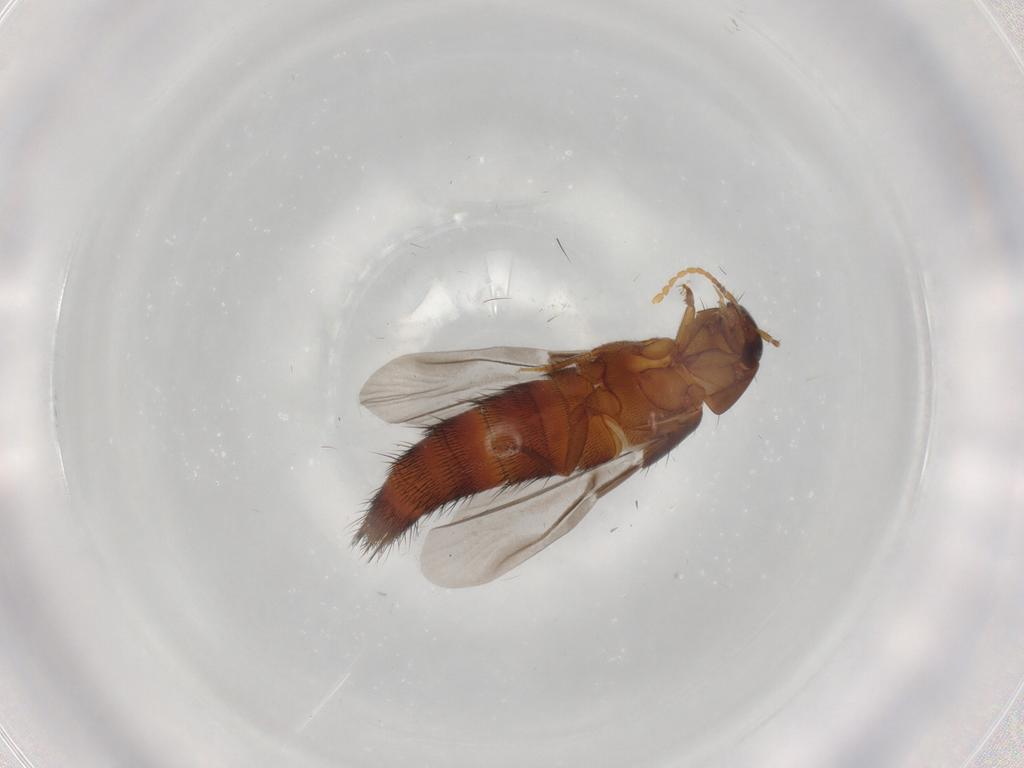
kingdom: Animalia
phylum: Arthropoda
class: Insecta
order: Coleoptera
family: Staphylinidae
